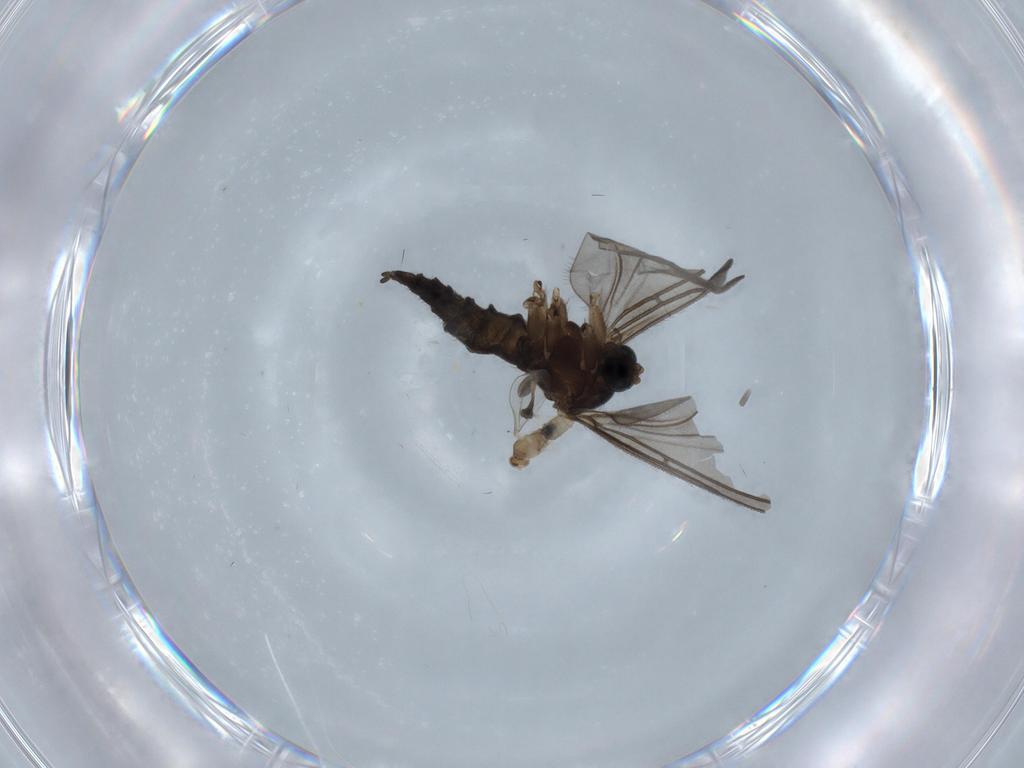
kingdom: Animalia
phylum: Arthropoda
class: Insecta
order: Diptera
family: Sciaridae
